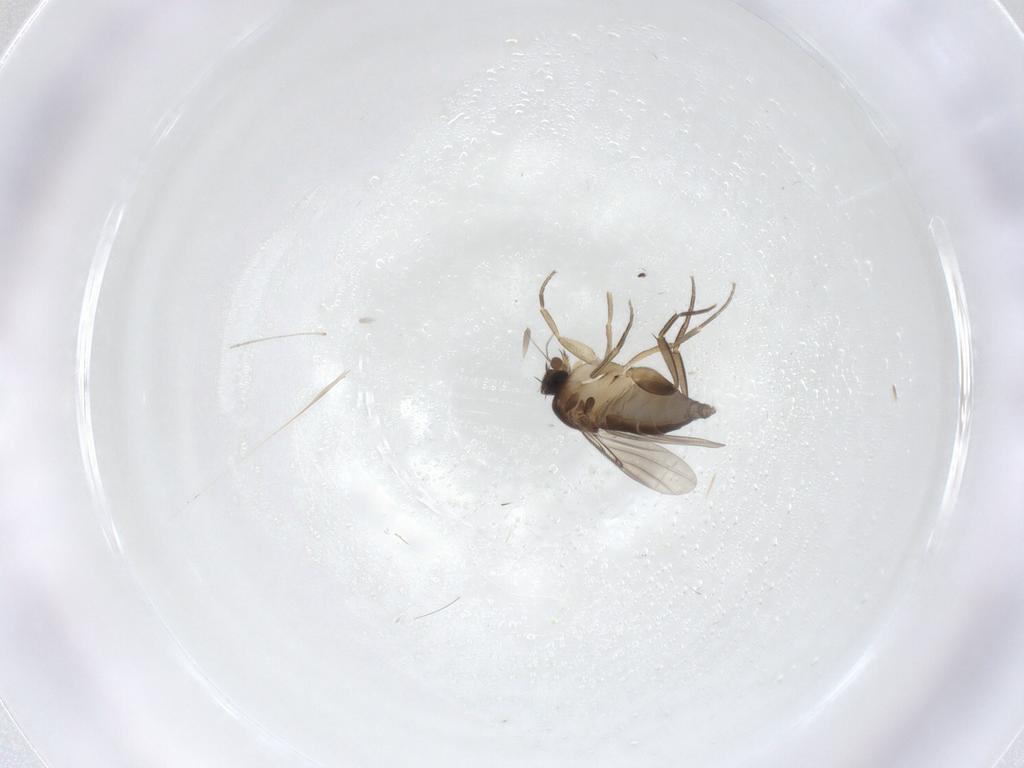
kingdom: Animalia
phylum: Arthropoda
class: Insecta
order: Diptera
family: Phoridae
